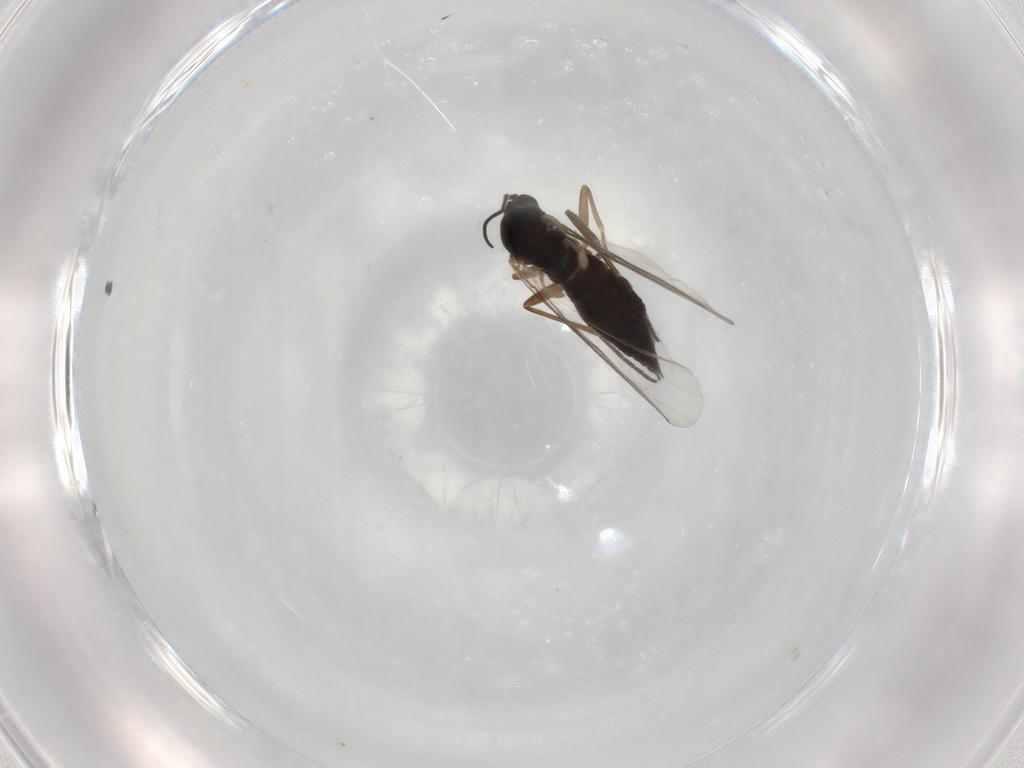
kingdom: Animalia
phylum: Arthropoda
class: Insecta
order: Diptera
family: Sciaridae
